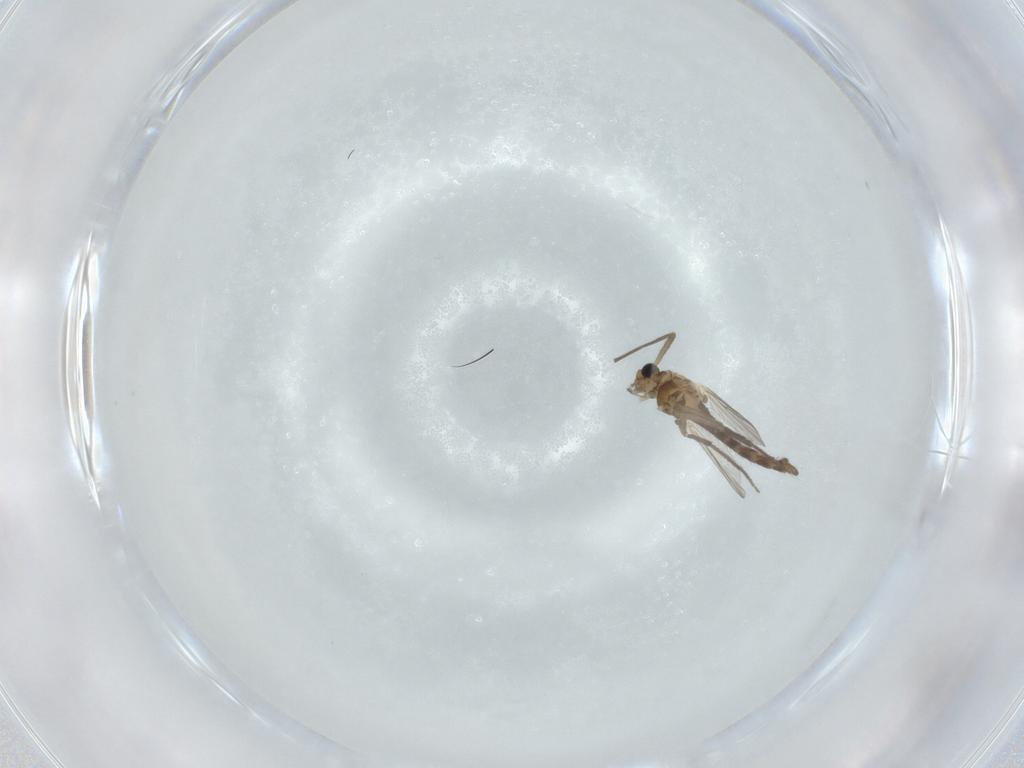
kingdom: Animalia
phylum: Arthropoda
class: Insecta
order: Diptera
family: Chironomidae
